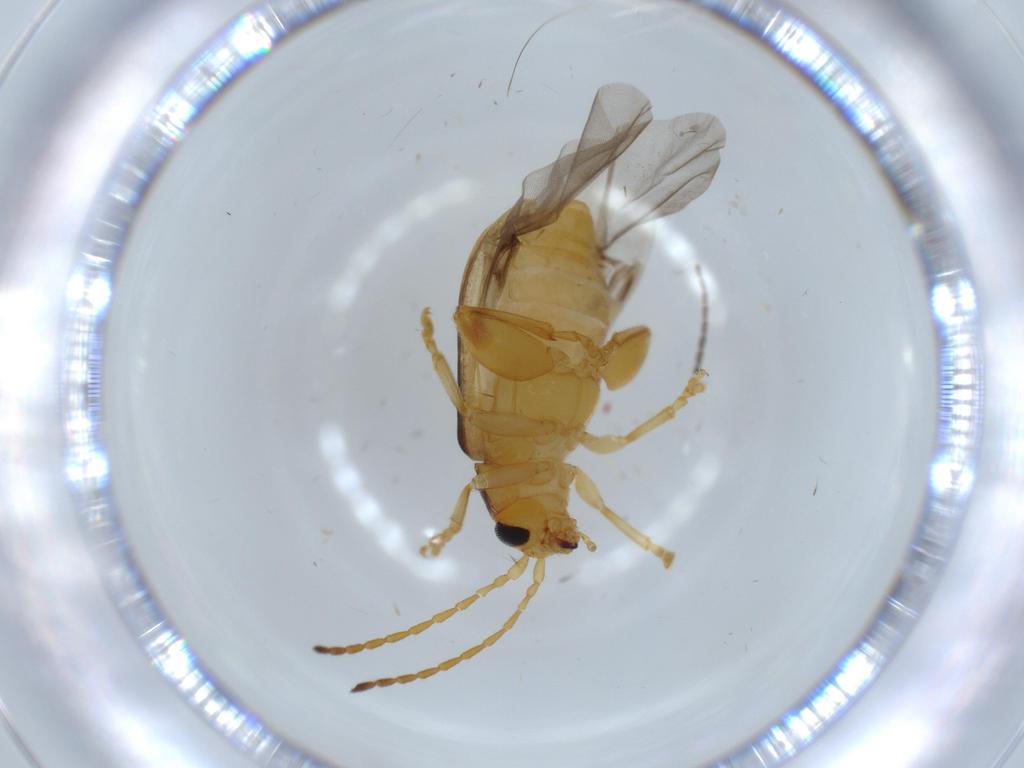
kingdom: Animalia
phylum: Arthropoda
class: Insecta
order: Coleoptera
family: Chrysomelidae
